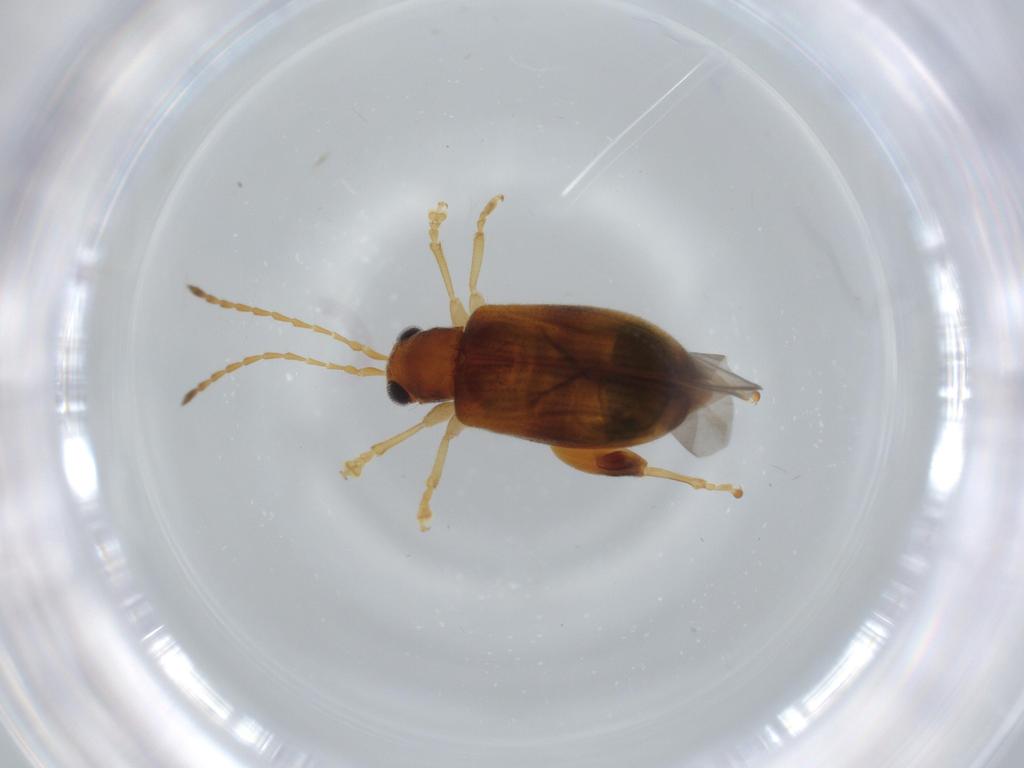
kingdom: Animalia
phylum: Arthropoda
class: Insecta
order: Coleoptera
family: Chrysomelidae
